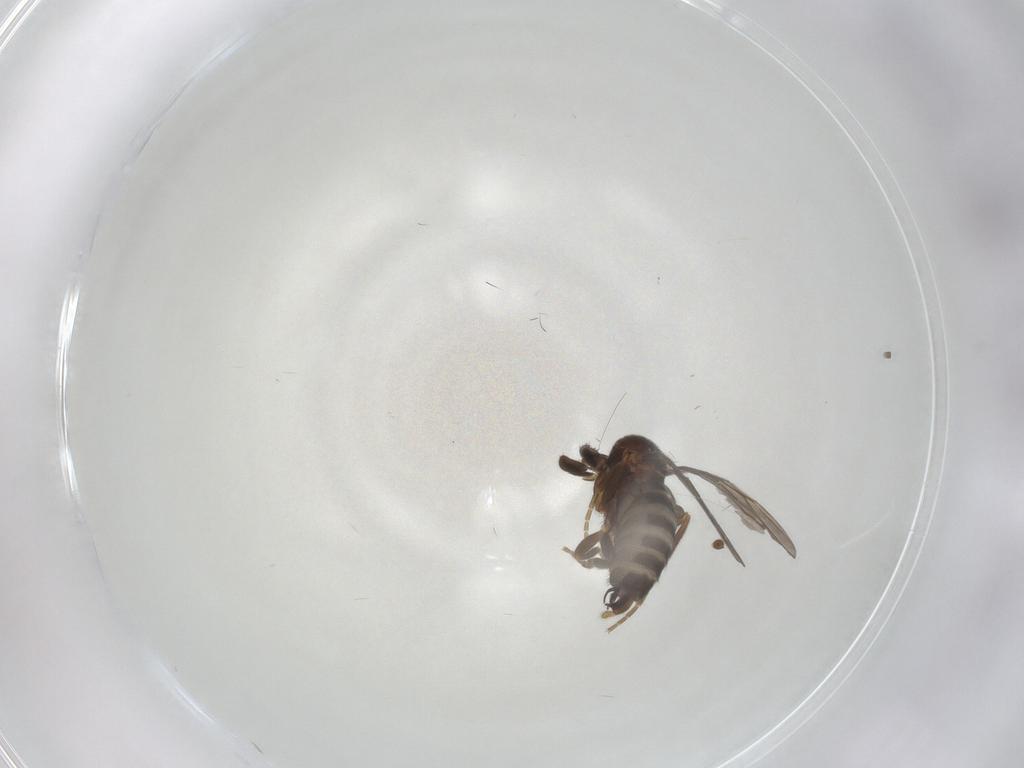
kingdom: Animalia
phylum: Arthropoda
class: Insecta
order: Diptera
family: Phoridae
